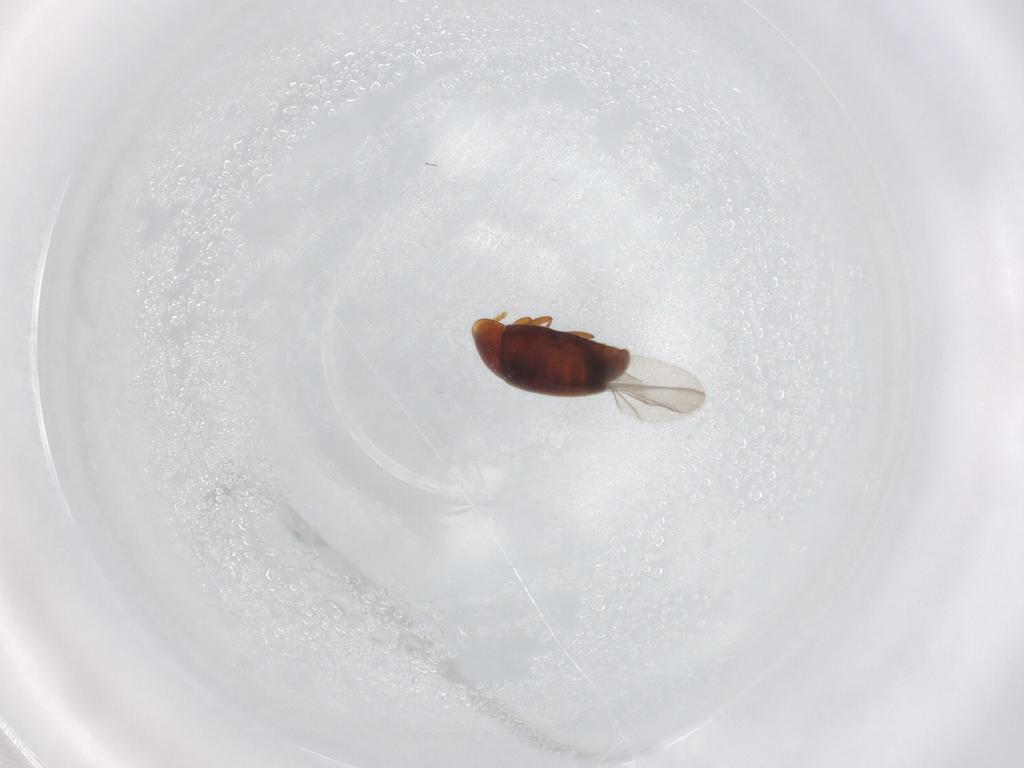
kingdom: Animalia
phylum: Arthropoda
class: Insecta
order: Coleoptera
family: Corylophidae
